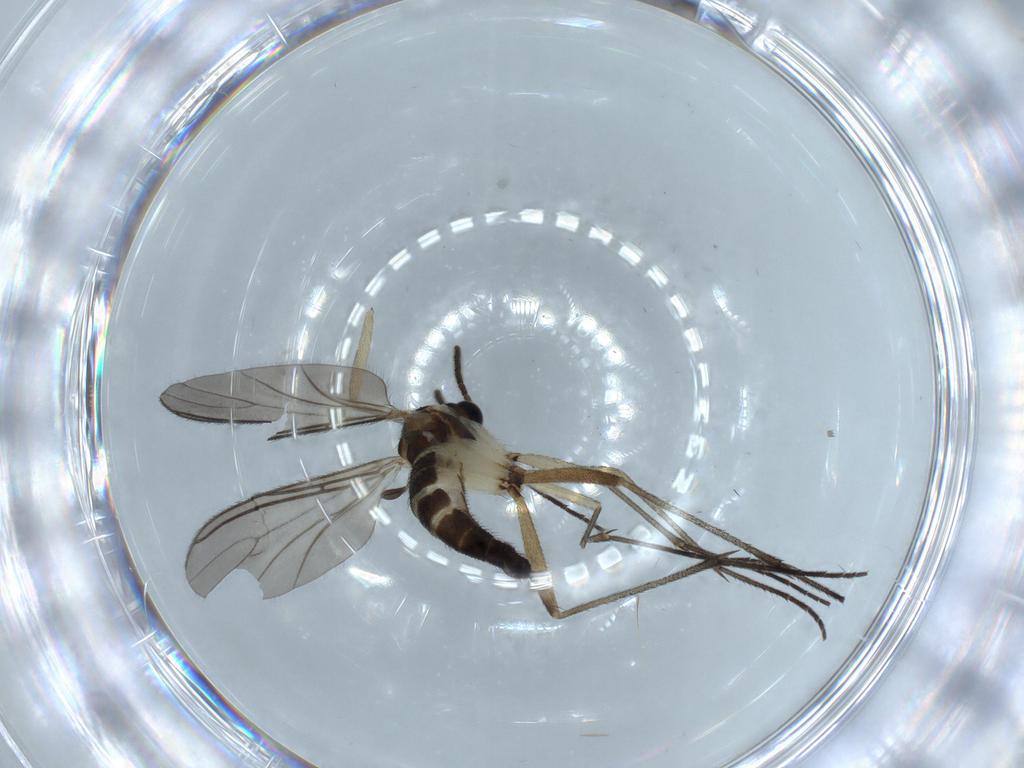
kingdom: Animalia
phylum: Arthropoda
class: Insecta
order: Diptera
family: Sciaridae
